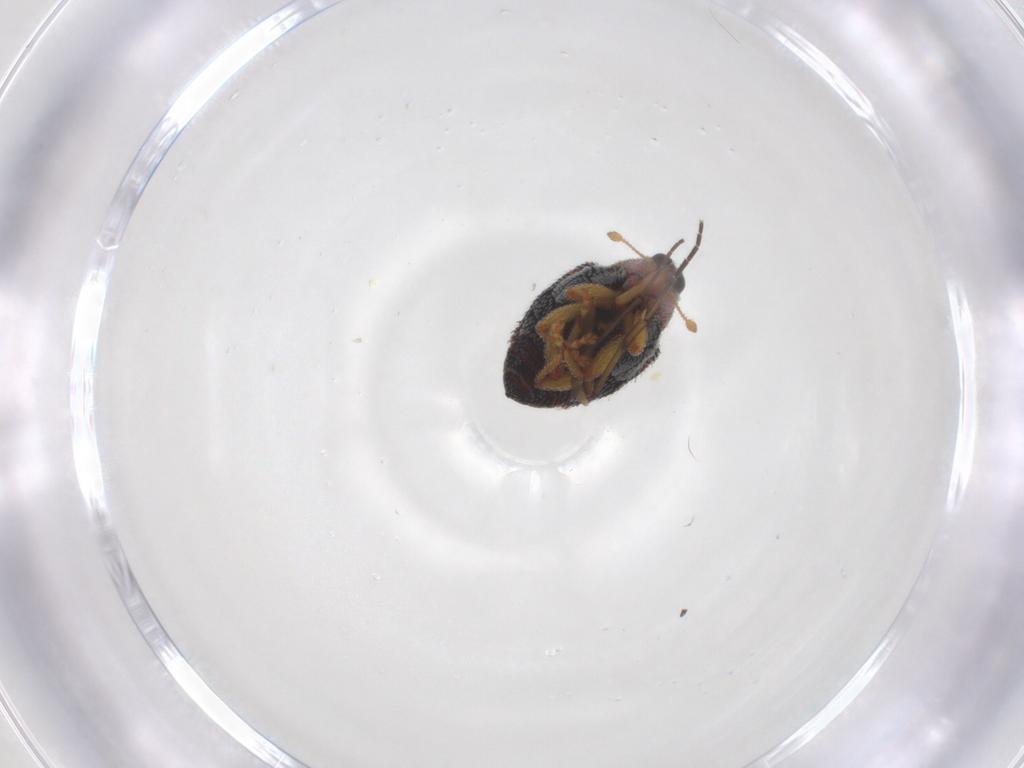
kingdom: Animalia
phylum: Arthropoda
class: Insecta
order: Coleoptera
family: Curculionidae
